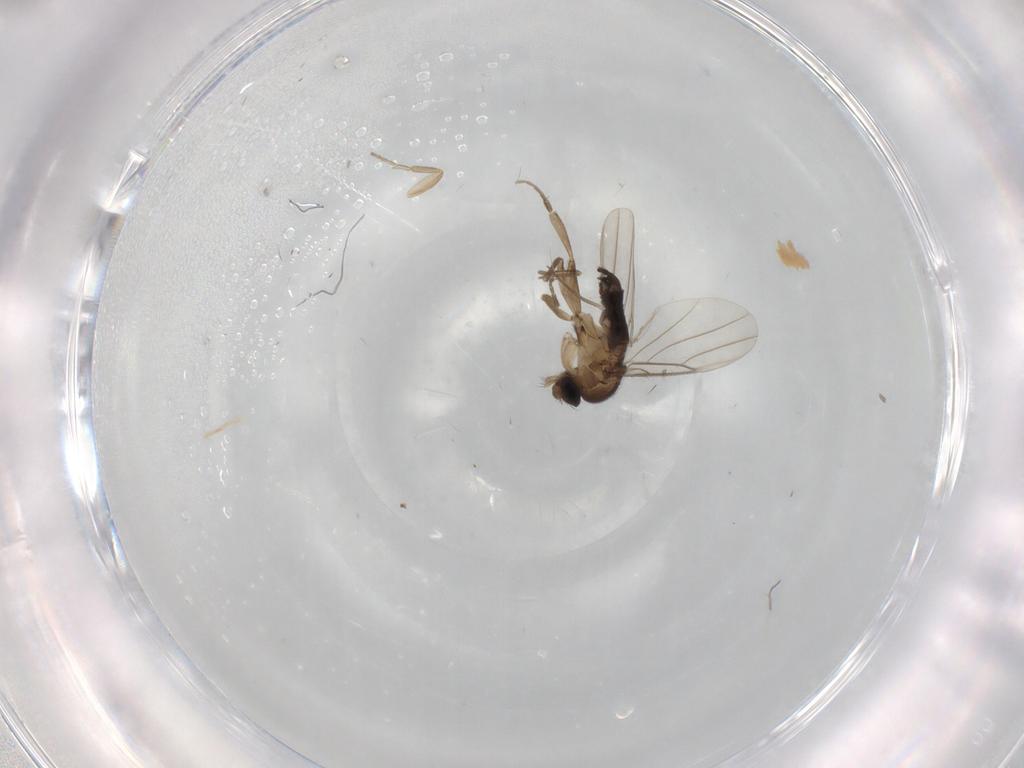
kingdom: Animalia
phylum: Arthropoda
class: Insecta
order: Diptera
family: Phoridae
